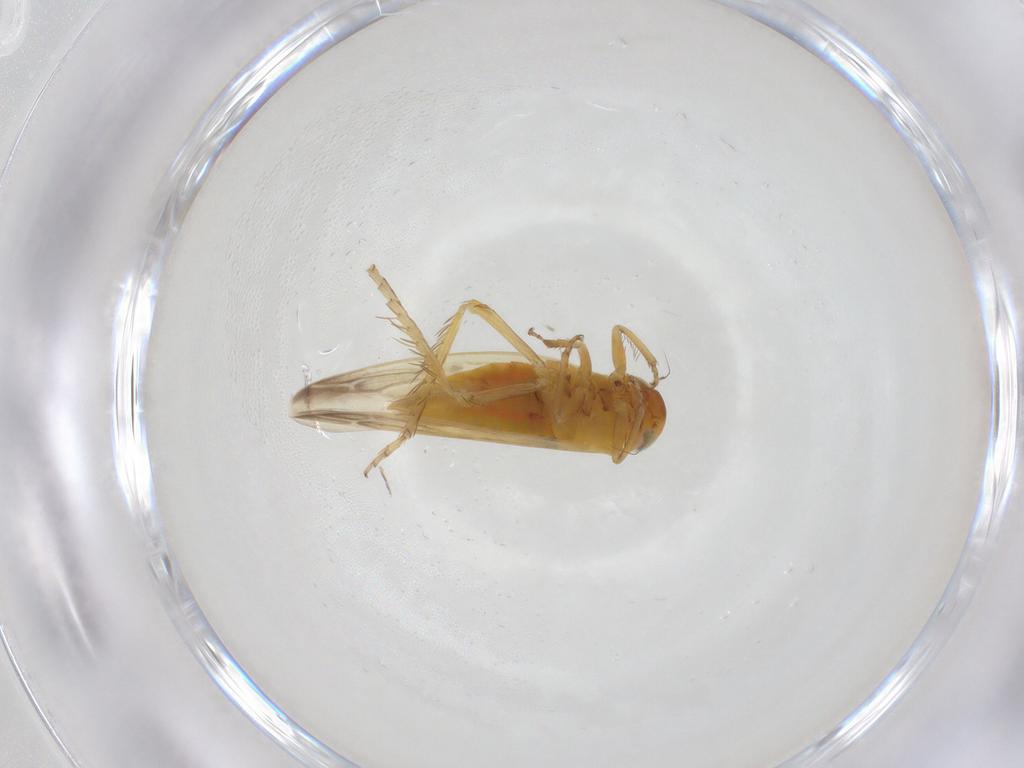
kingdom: Animalia
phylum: Arthropoda
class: Insecta
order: Hemiptera
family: Cicadellidae
